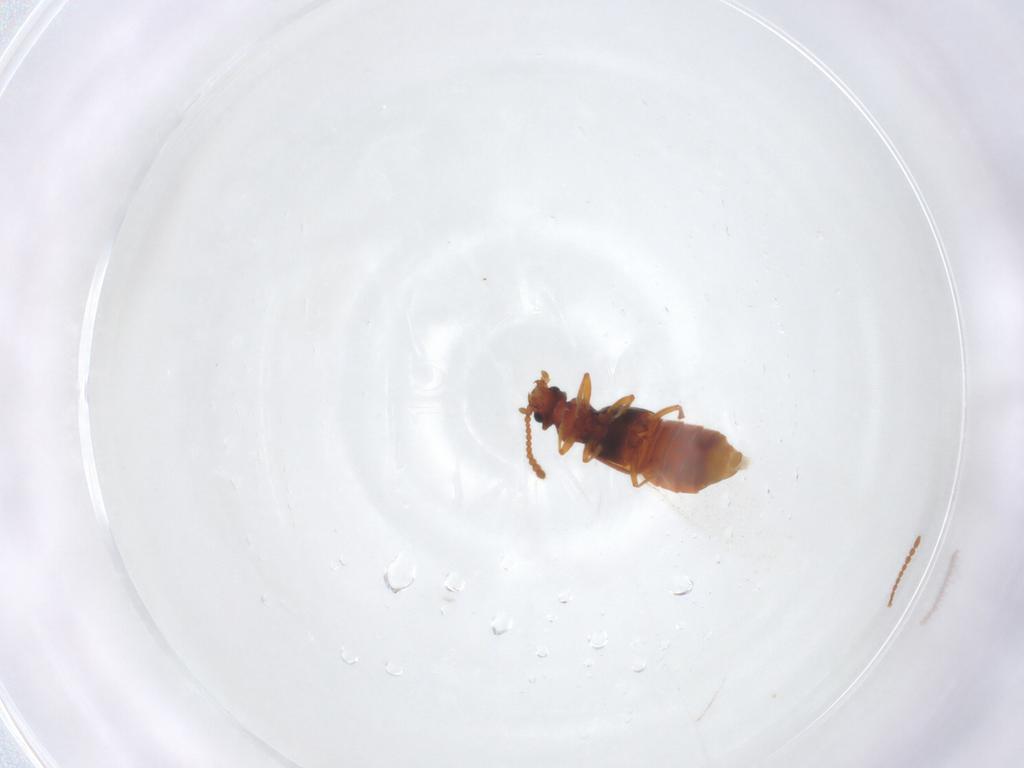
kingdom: Animalia
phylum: Arthropoda
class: Insecta
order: Coleoptera
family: Staphylinidae
